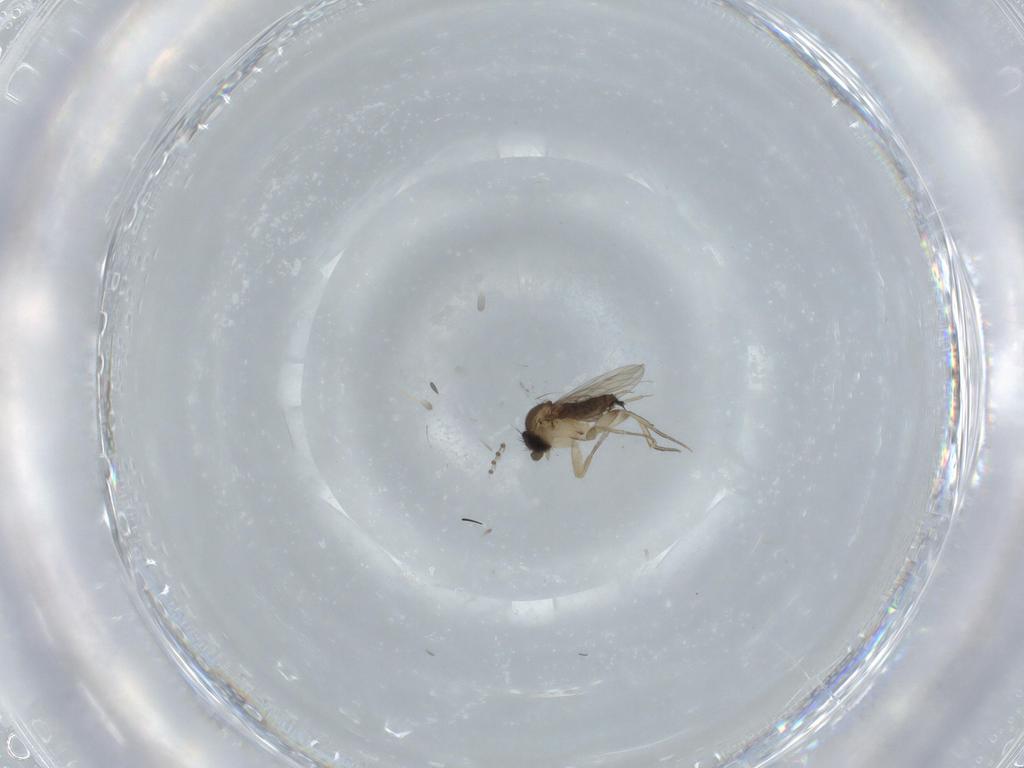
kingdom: Animalia
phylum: Arthropoda
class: Insecta
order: Diptera
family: Phoridae
